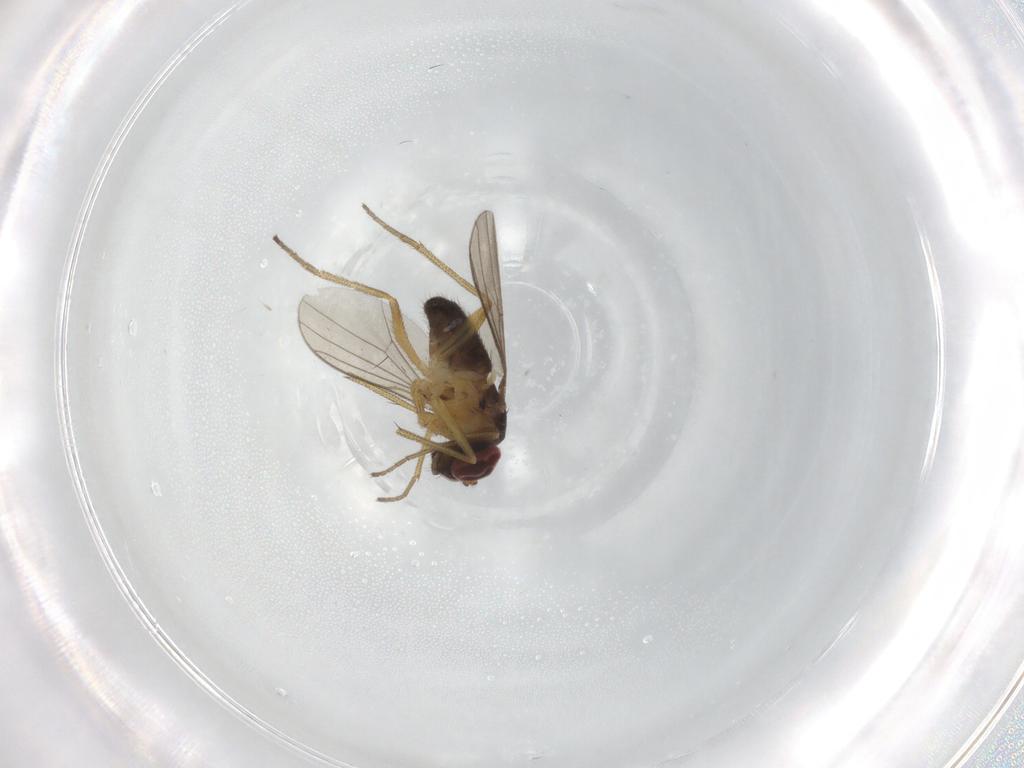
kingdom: Animalia
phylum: Arthropoda
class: Insecta
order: Diptera
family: Dolichopodidae
